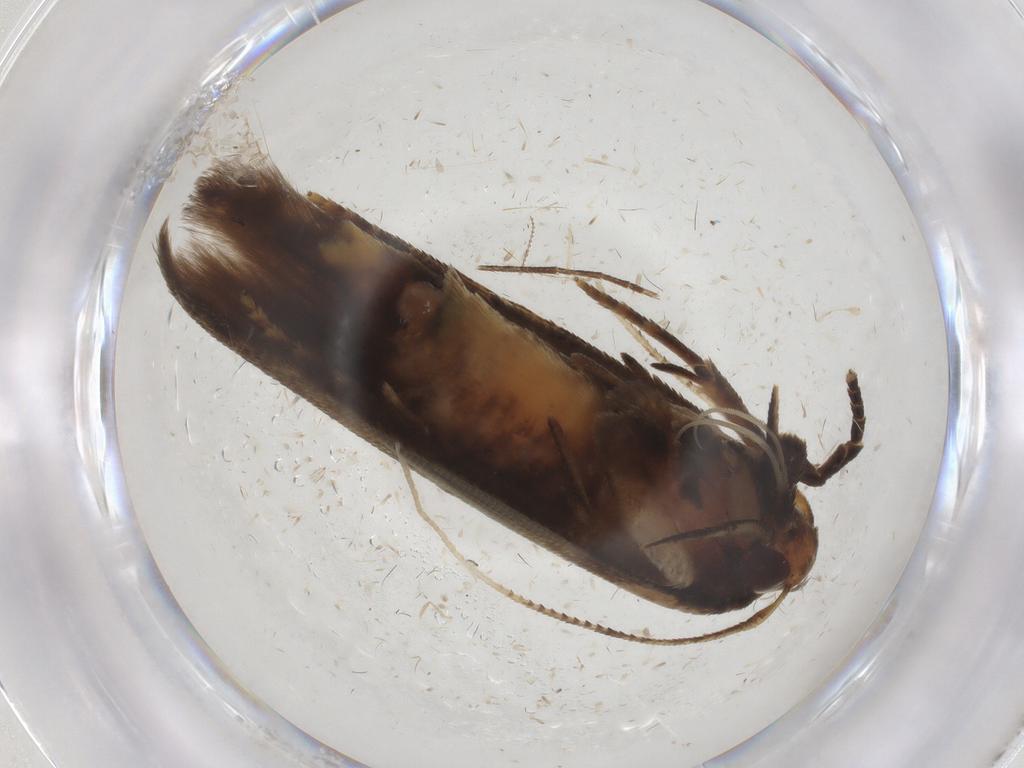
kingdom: Animalia
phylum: Arthropoda
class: Insecta
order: Lepidoptera
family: Cosmopterigidae
